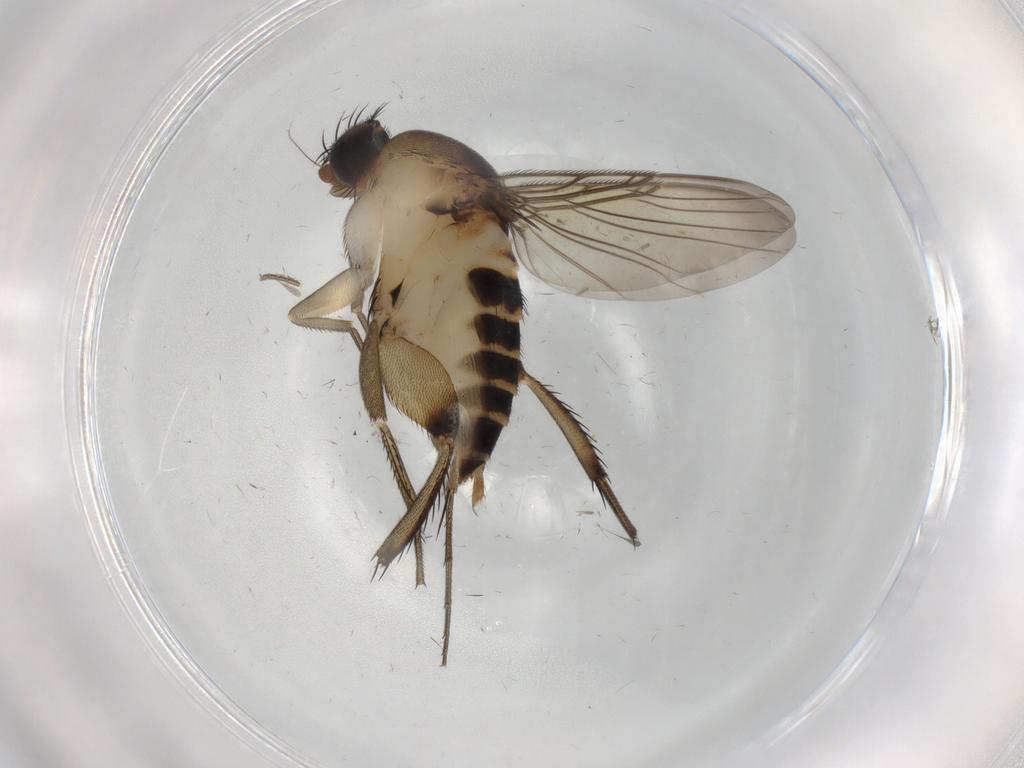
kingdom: Animalia
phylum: Arthropoda
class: Insecta
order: Diptera
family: Phoridae
